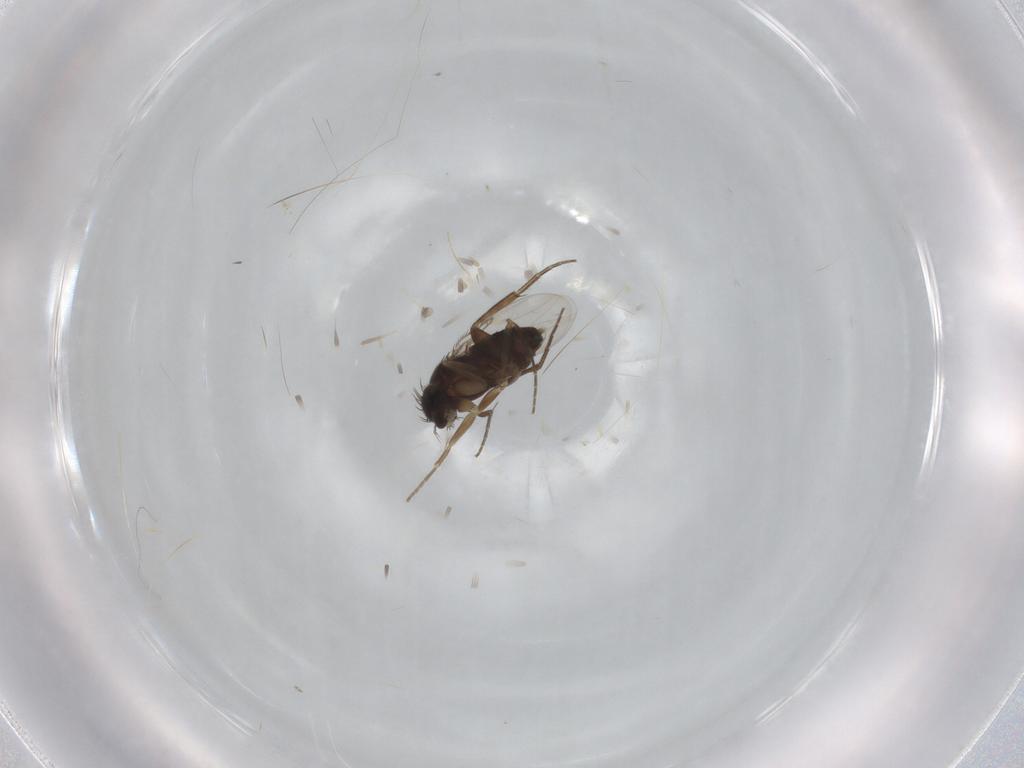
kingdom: Animalia
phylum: Arthropoda
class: Insecta
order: Diptera
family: Phoridae
